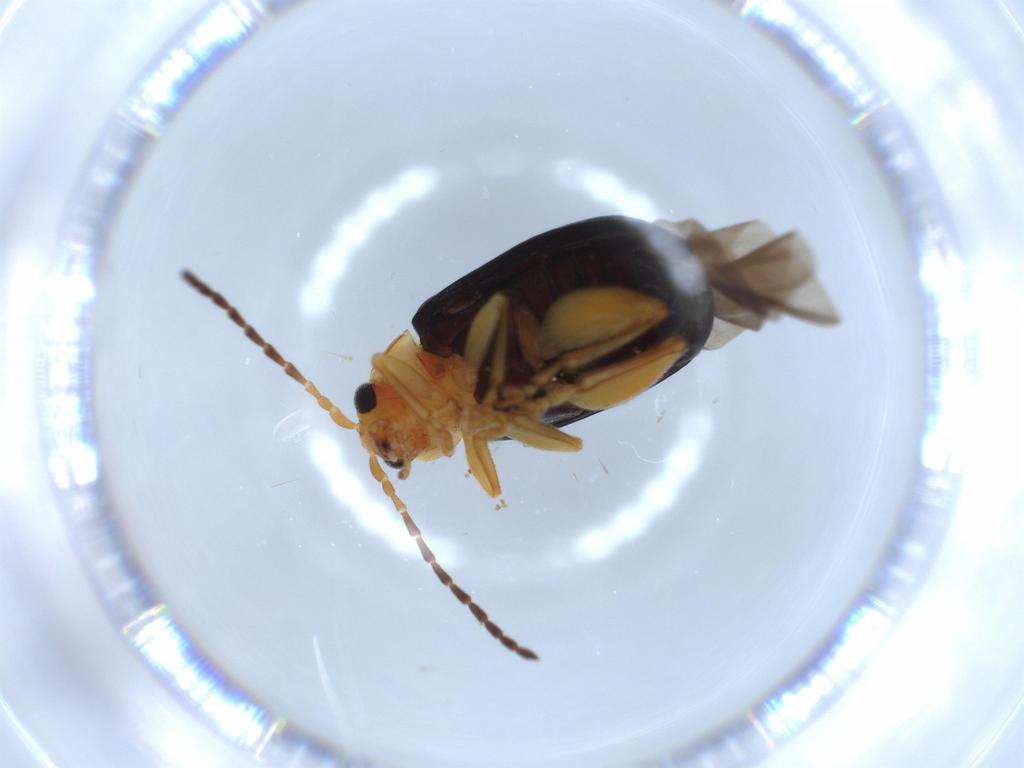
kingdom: Animalia
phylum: Arthropoda
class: Insecta
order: Coleoptera
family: Chrysomelidae
